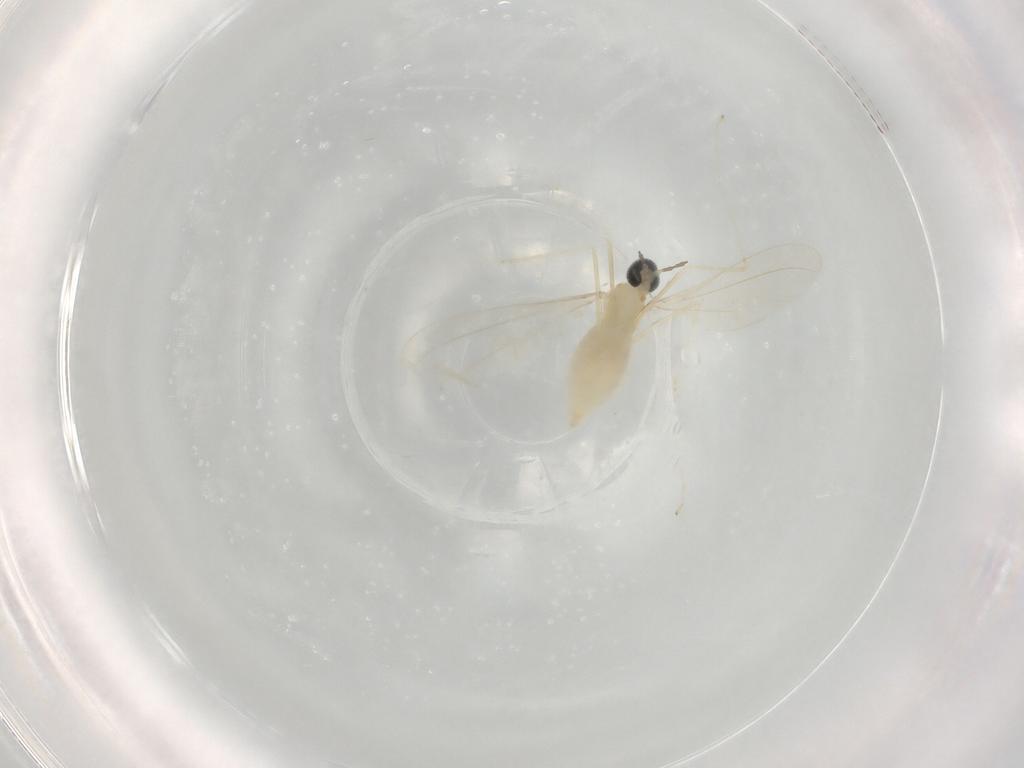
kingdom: Animalia
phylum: Arthropoda
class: Insecta
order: Diptera
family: Cecidomyiidae
